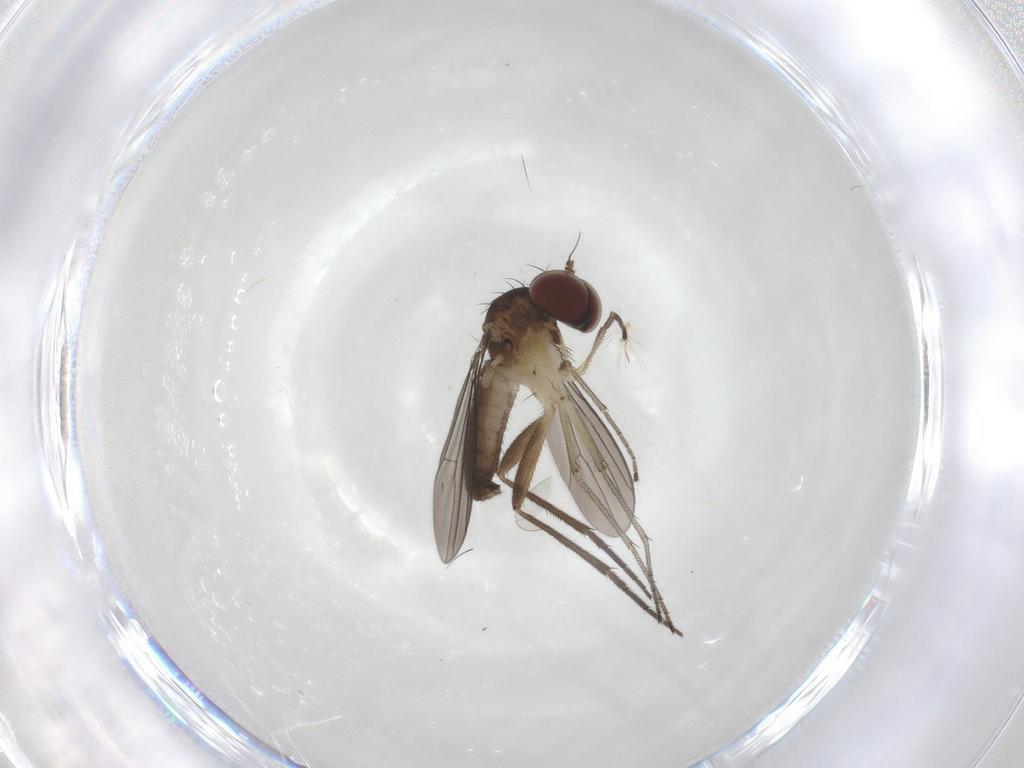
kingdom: Animalia
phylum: Arthropoda
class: Insecta
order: Diptera
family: Dolichopodidae
